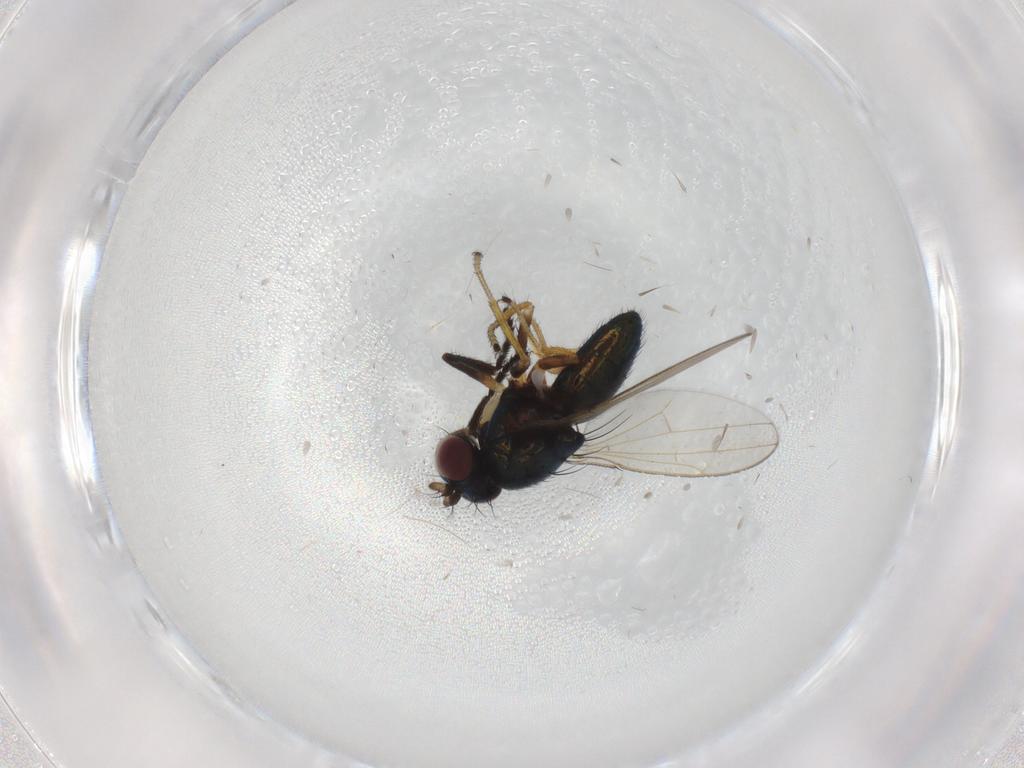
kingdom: Animalia
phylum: Arthropoda
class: Insecta
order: Diptera
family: Ephydridae
